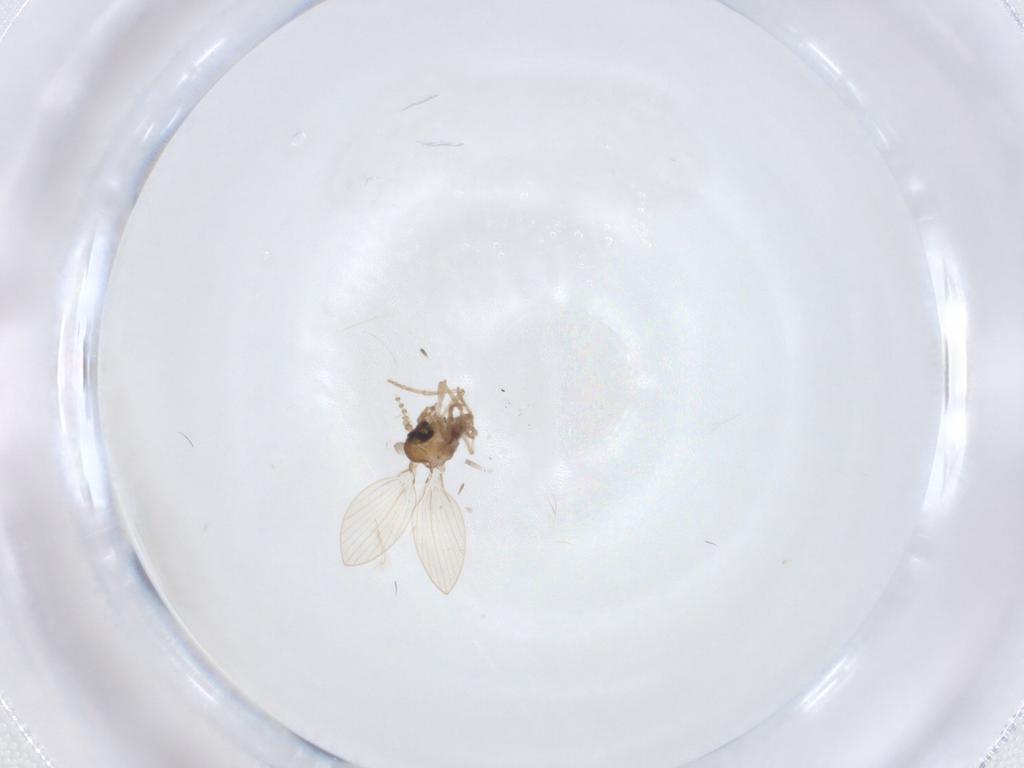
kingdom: Animalia
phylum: Arthropoda
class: Insecta
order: Diptera
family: Psychodidae
